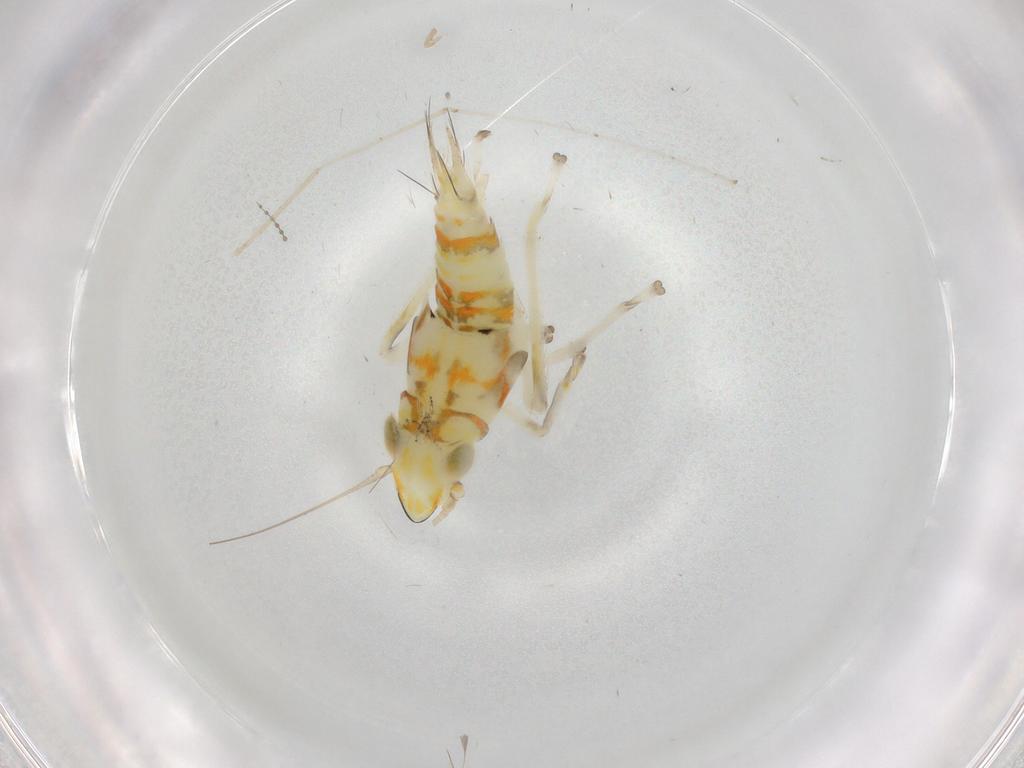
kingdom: Animalia
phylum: Arthropoda
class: Insecta
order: Hemiptera
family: Cicadellidae
